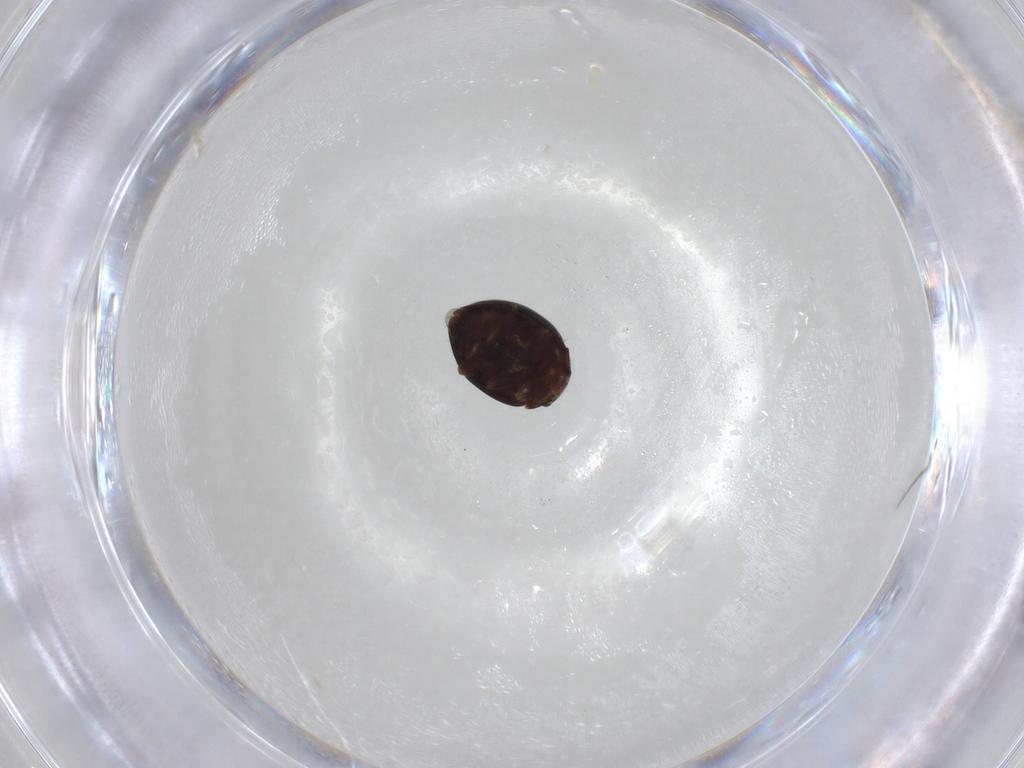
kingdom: Animalia
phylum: Arthropoda
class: Insecta
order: Coleoptera
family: Coccinellidae
